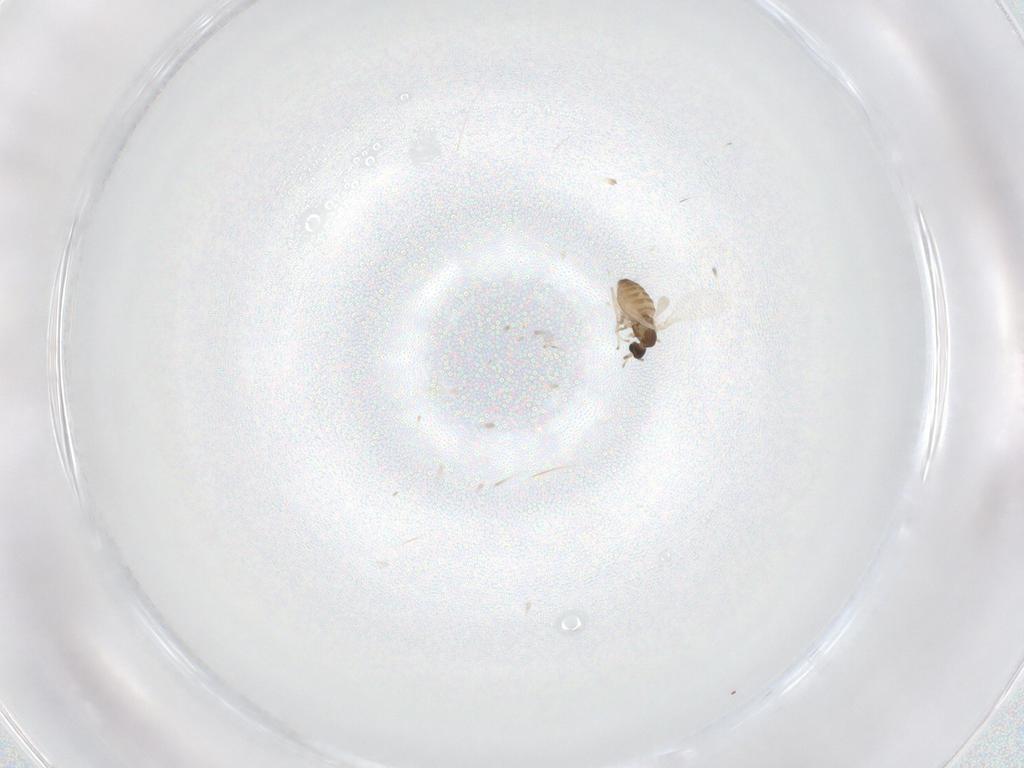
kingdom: Animalia
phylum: Arthropoda
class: Insecta
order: Diptera
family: Cecidomyiidae
